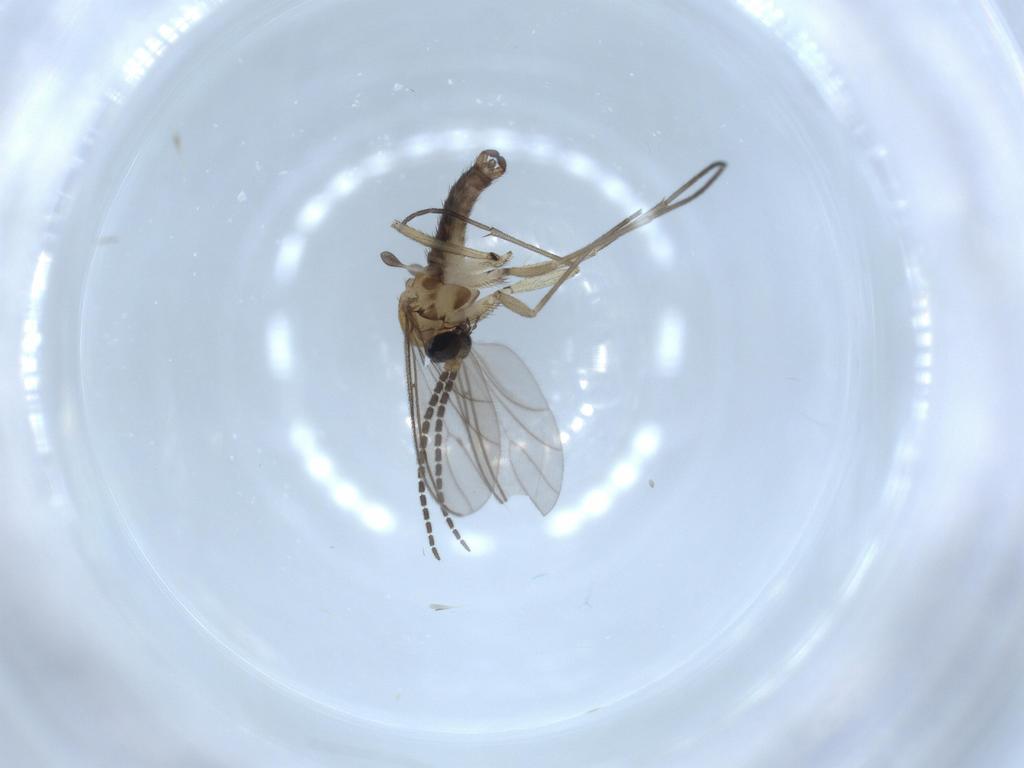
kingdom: Animalia
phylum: Arthropoda
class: Insecta
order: Diptera
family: Sciaridae
